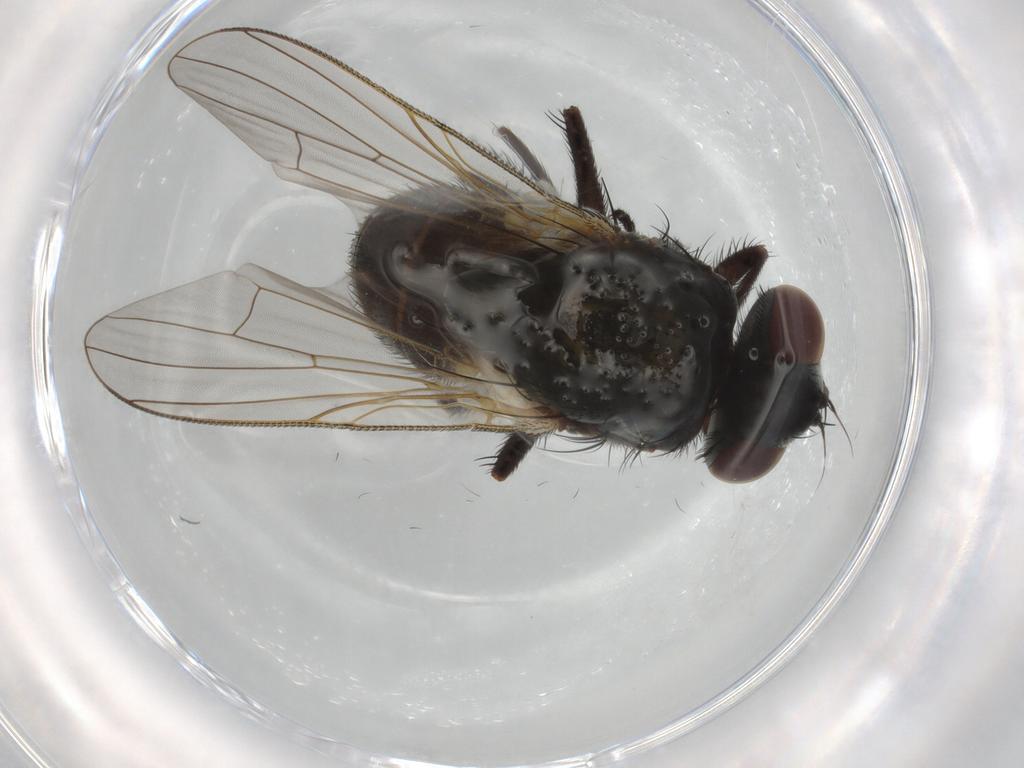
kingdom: Animalia
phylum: Arthropoda
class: Insecta
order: Diptera
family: Muscidae
